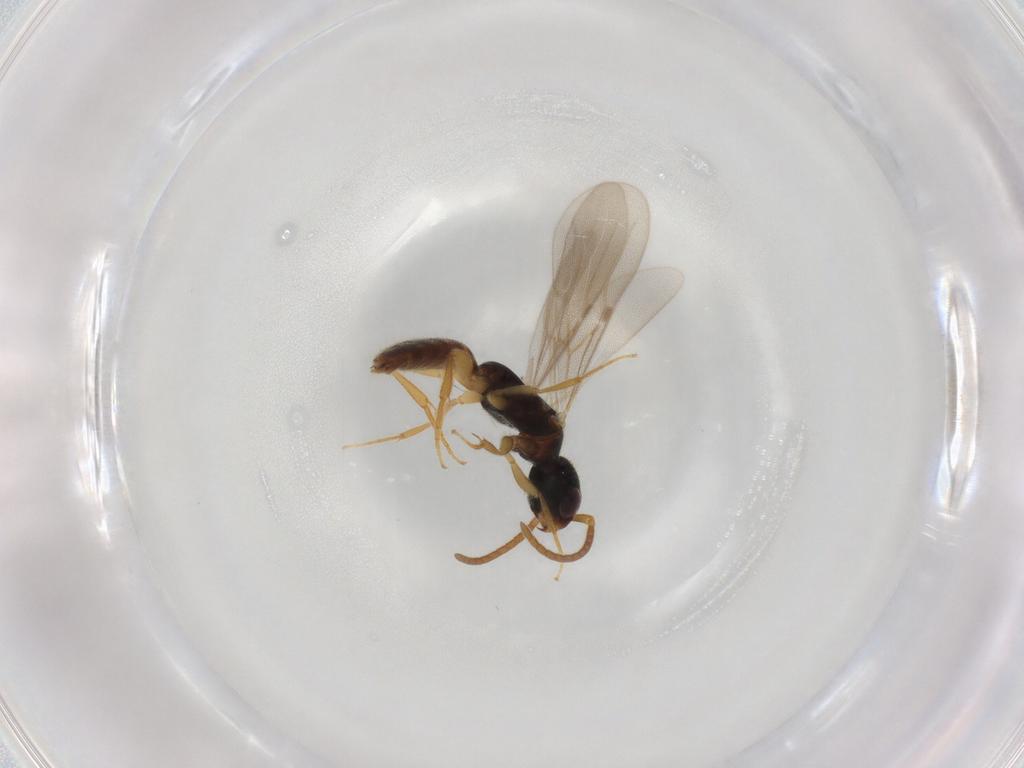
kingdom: Animalia
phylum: Arthropoda
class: Insecta
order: Hymenoptera
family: Bethylidae
